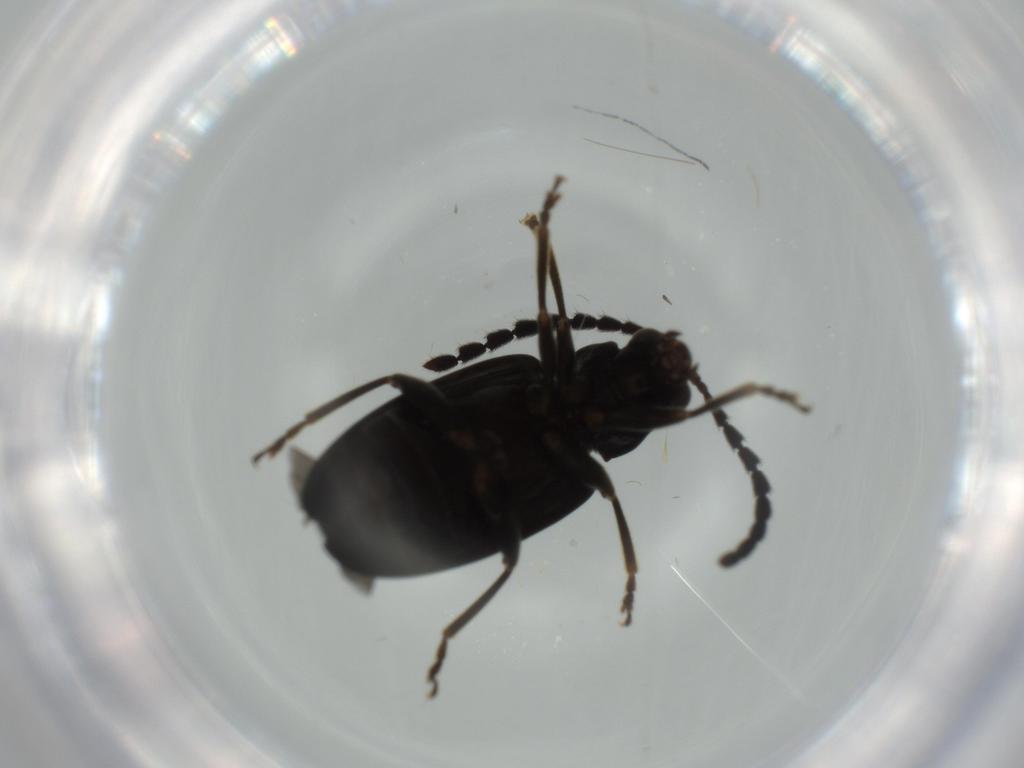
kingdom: Animalia
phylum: Arthropoda
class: Insecta
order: Coleoptera
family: Chrysomelidae
